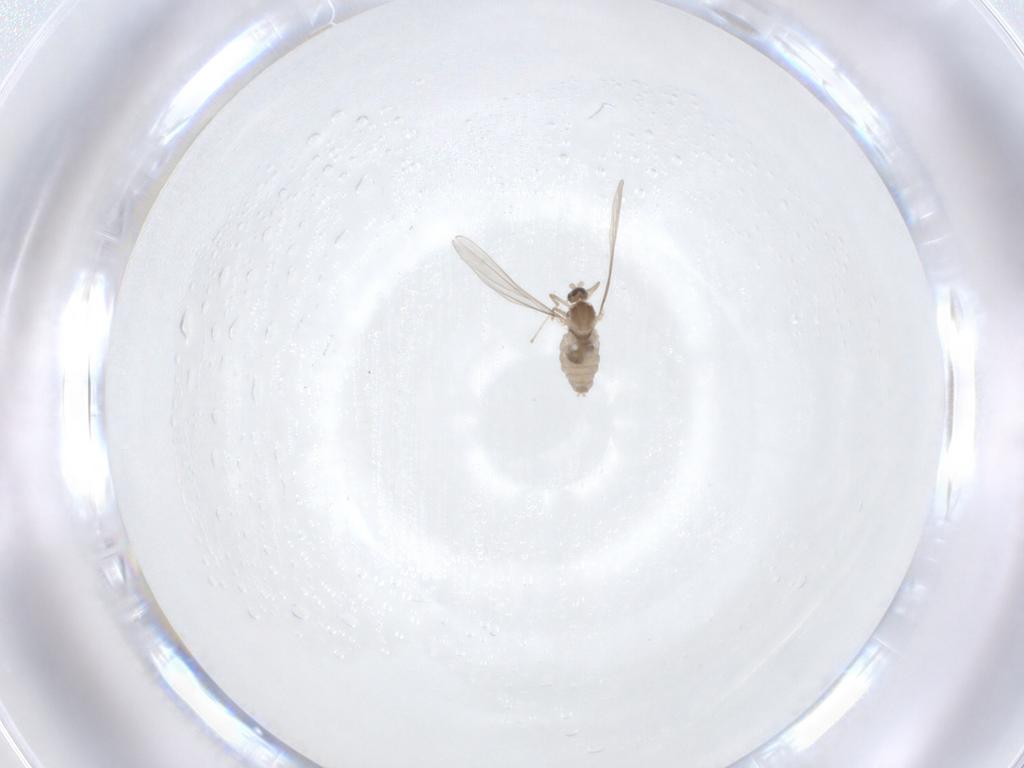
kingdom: Animalia
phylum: Arthropoda
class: Insecta
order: Diptera
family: Cecidomyiidae
